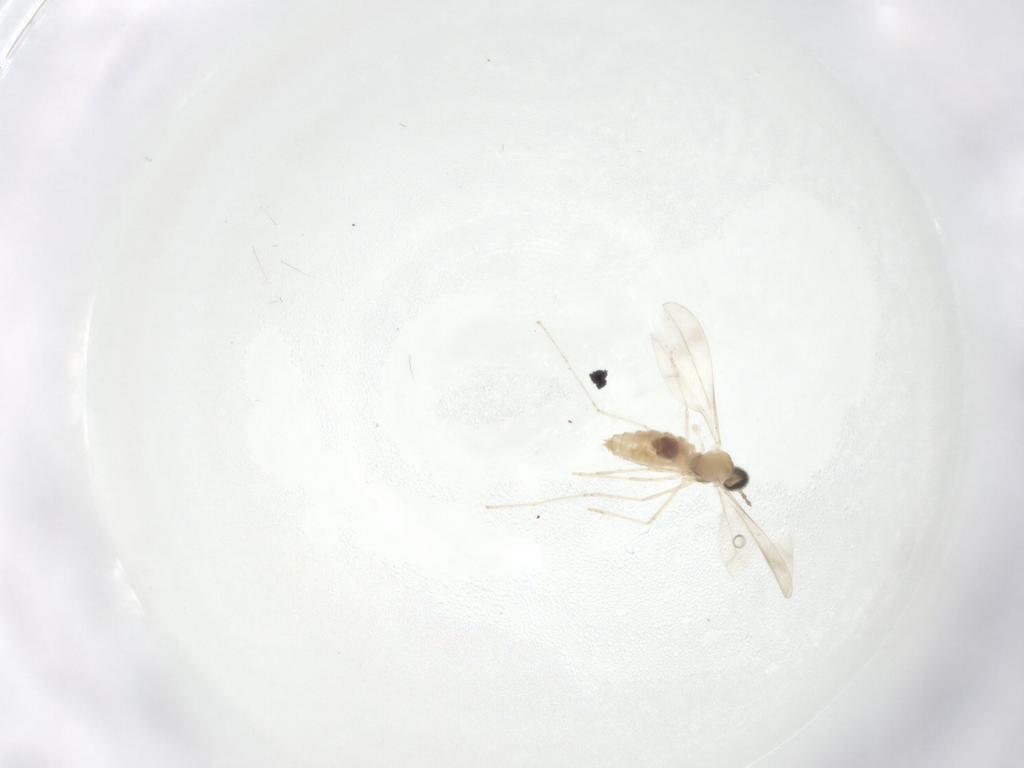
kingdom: Animalia
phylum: Arthropoda
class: Insecta
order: Diptera
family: Cecidomyiidae
